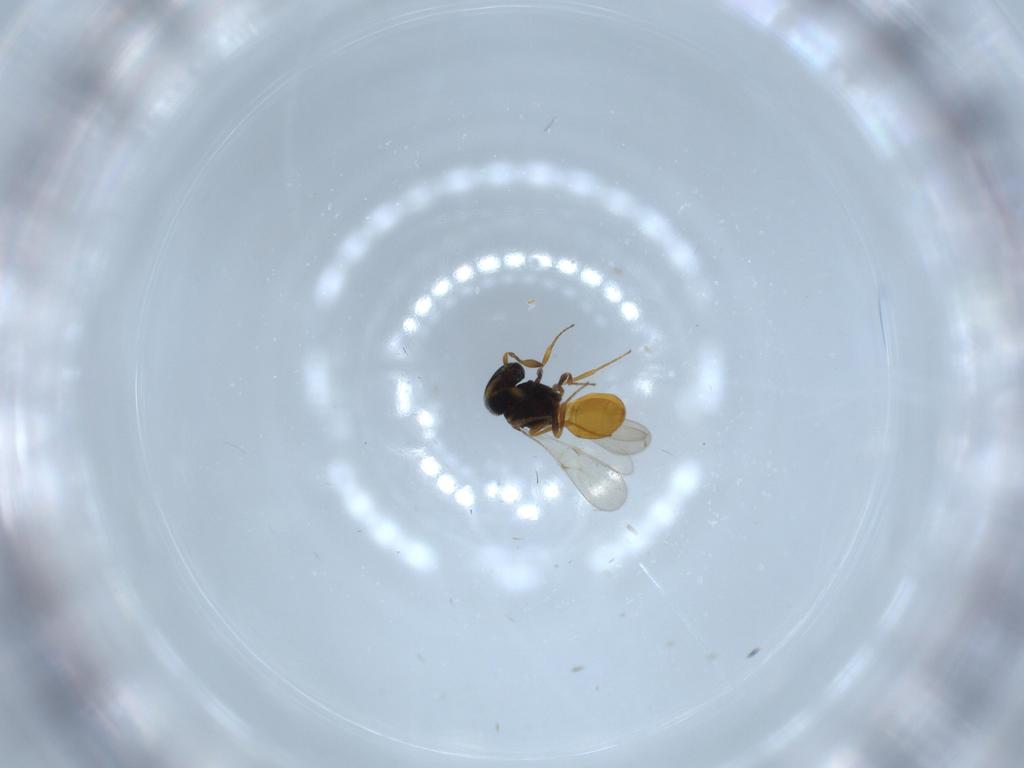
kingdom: Animalia
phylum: Arthropoda
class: Insecta
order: Hymenoptera
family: Scelionidae
